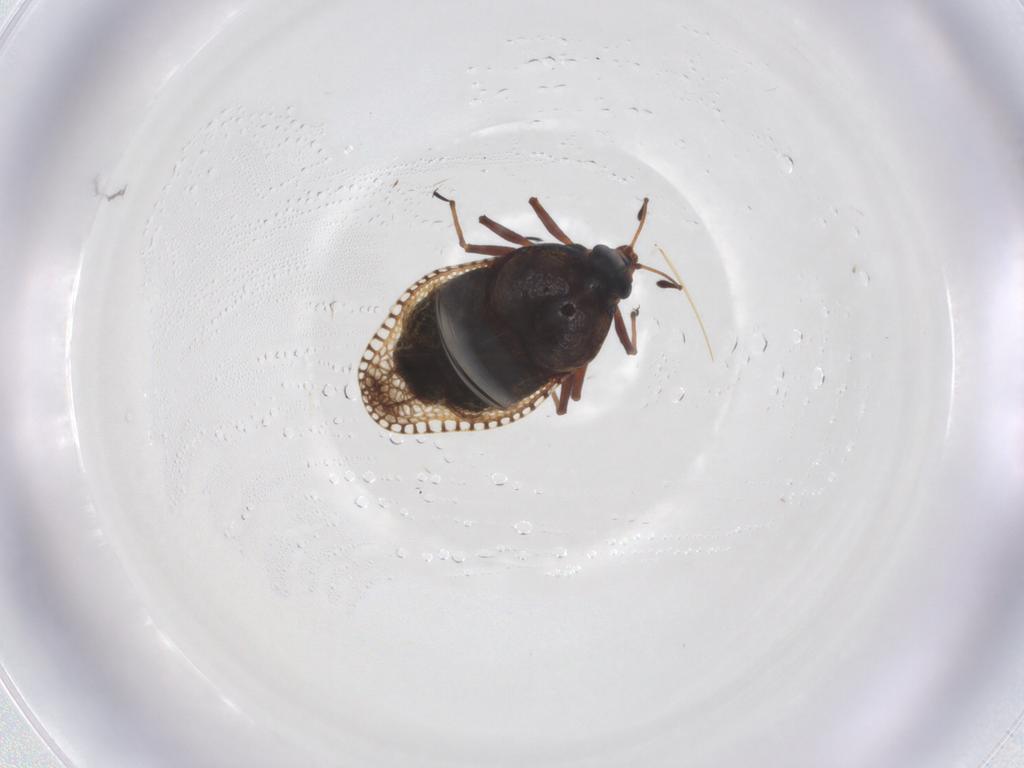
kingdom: Animalia
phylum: Arthropoda
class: Insecta
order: Hemiptera
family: Tingidae
